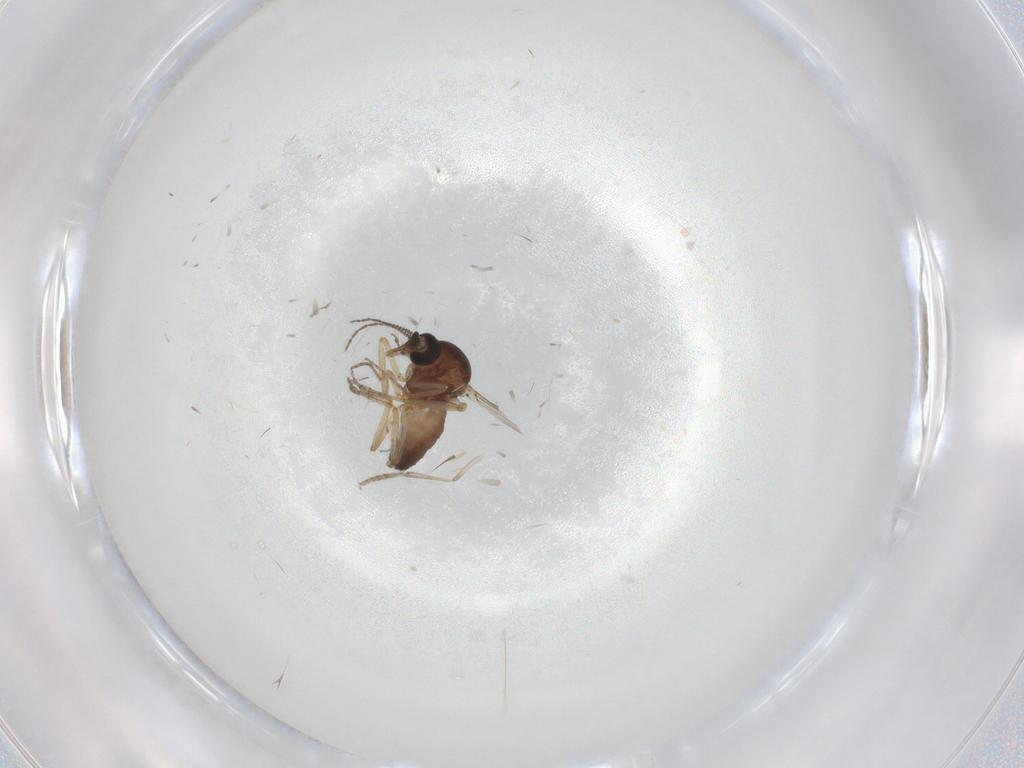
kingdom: Animalia
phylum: Arthropoda
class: Insecta
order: Diptera
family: Ceratopogonidae
